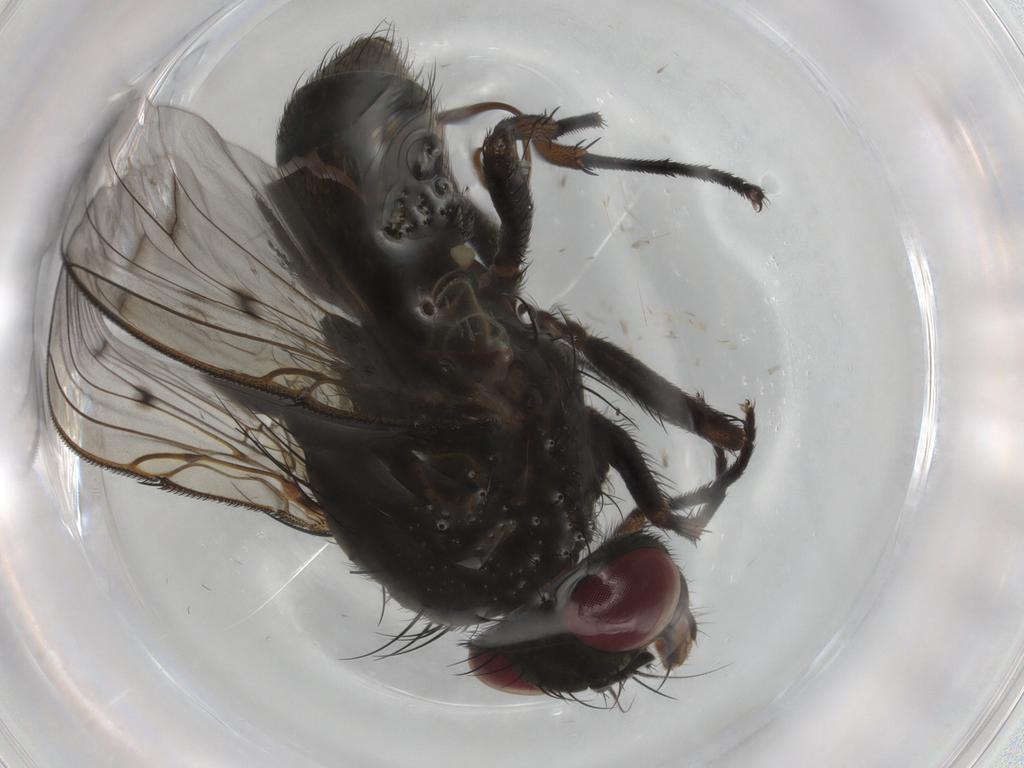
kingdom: Animalia
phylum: Arthropoda
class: Insecta
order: Diptera
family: Muscidae
